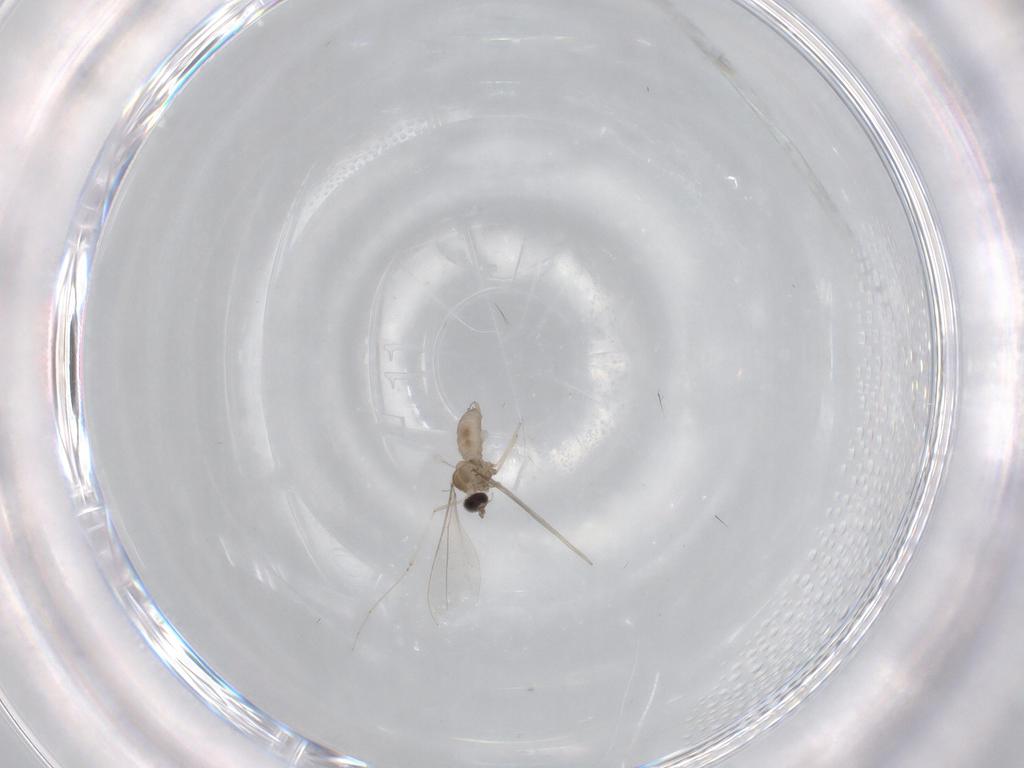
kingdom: Animalia
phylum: Arthropoda
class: Insecta
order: Diptera
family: Tabanidae
